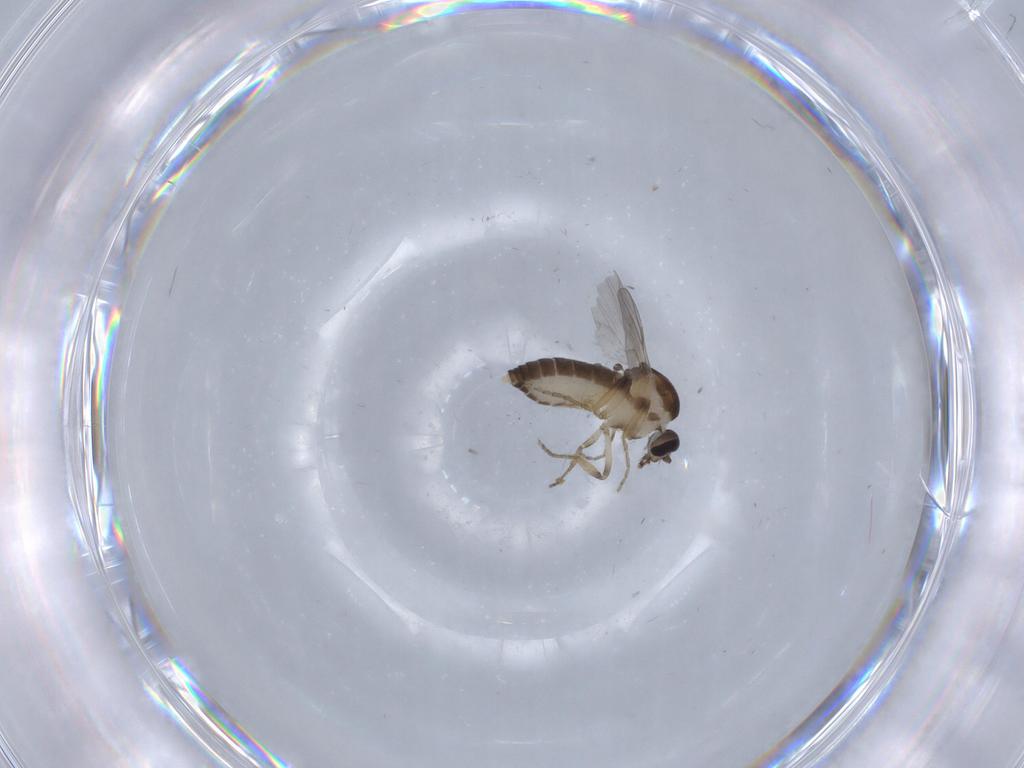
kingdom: Animalia
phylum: Arthropoda
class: Insecta
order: Diptera
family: Ceratopogonidae
